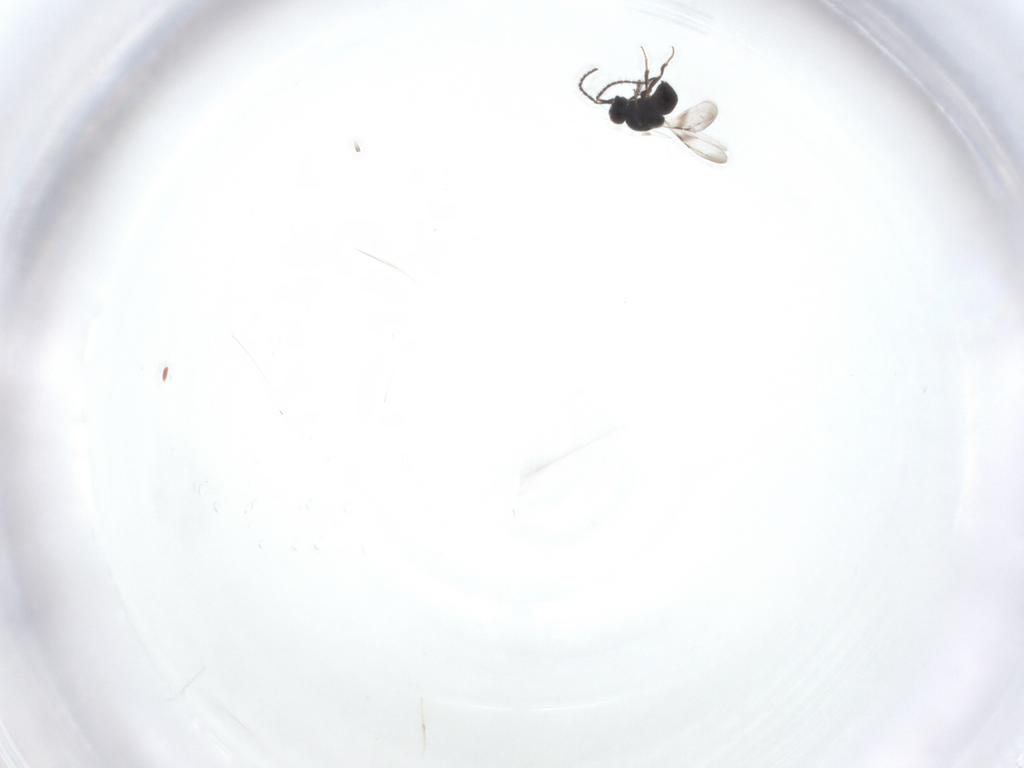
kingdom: Animalia
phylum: Arthropoda
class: Insecta
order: Hymenoptera
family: Ceraphronidae
